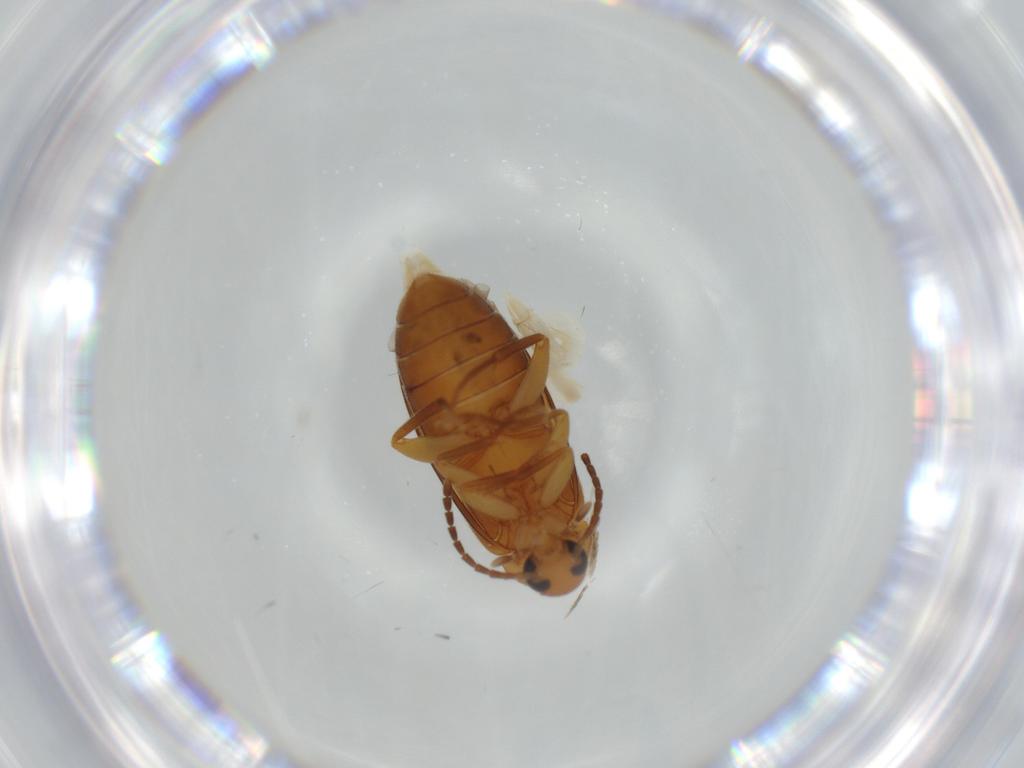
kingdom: Animalia
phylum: Arthropoda
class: Insecta
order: Coleoptera
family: Scraptiidae
